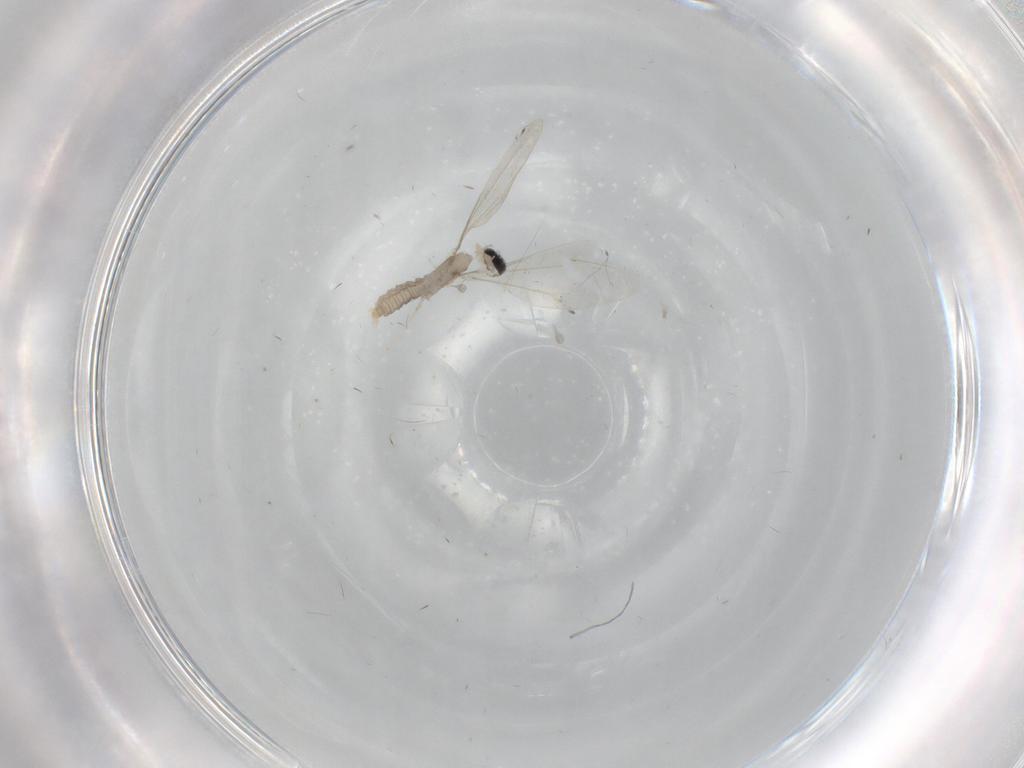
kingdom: Animalia
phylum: Arthropoda
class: Insecta
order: Diptera
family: Cecidomyiidae
